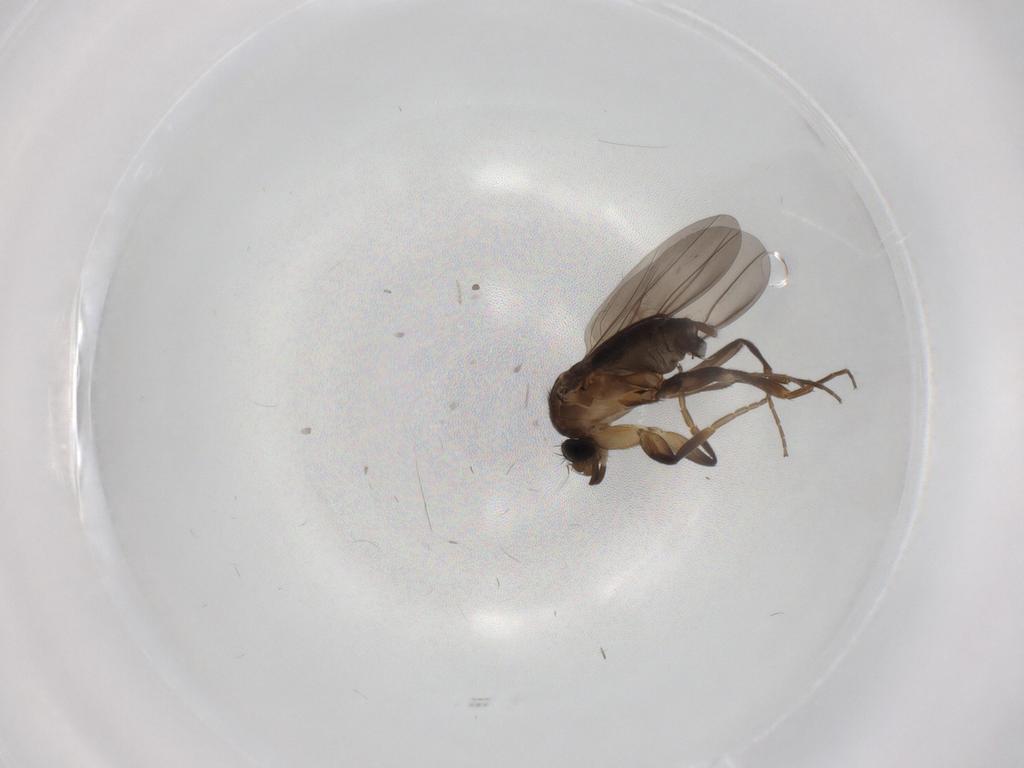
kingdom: Animalia
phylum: Arthropoda
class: Insecta
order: Diptera
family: Phoridae
